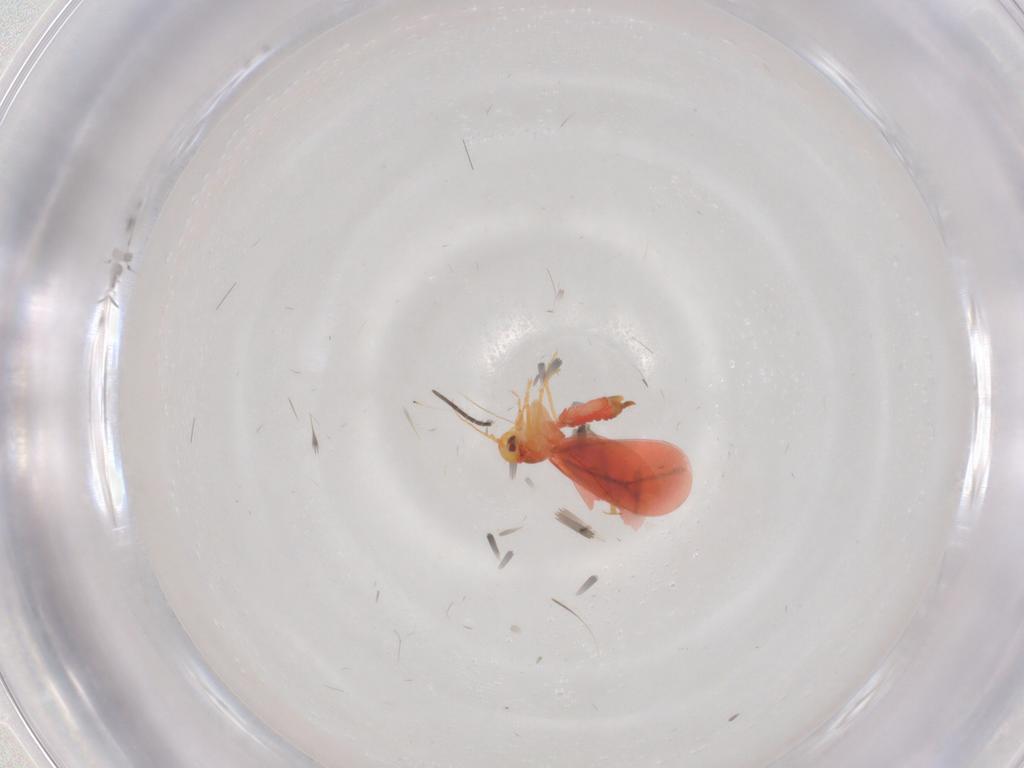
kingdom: Animalia
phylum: Arthropoda
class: Insecta
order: Hemiptera
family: Aleyrodidae
